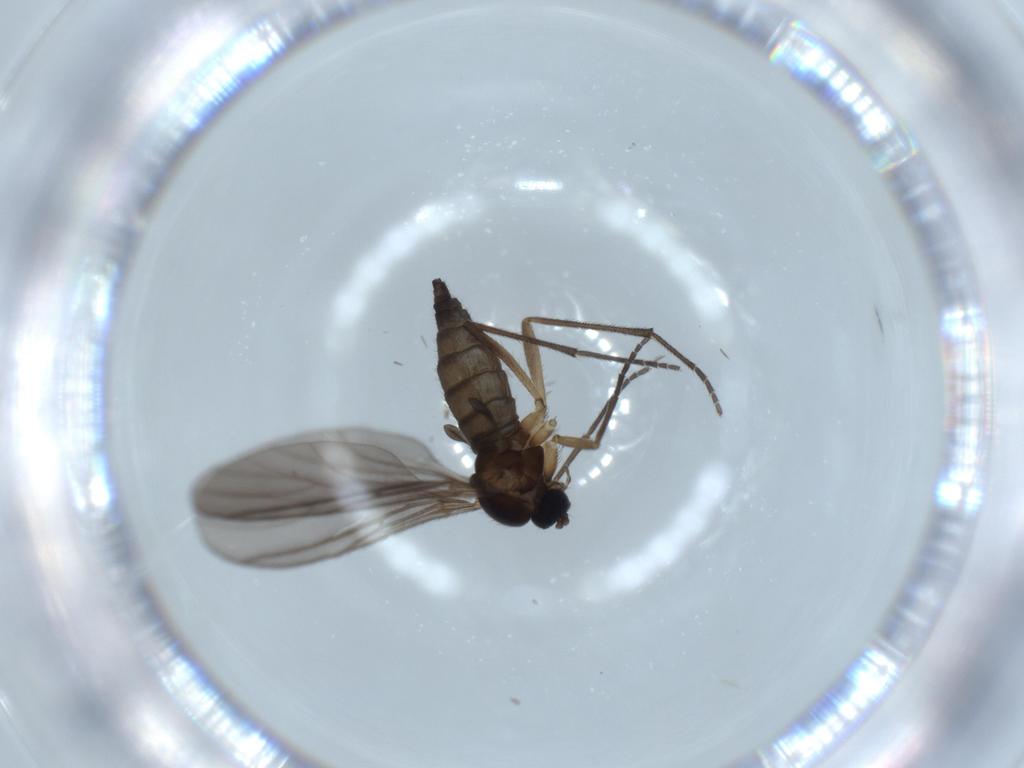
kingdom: Animalia
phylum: Arthropoda
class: Insecta
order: Diptera
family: Sciaridae
